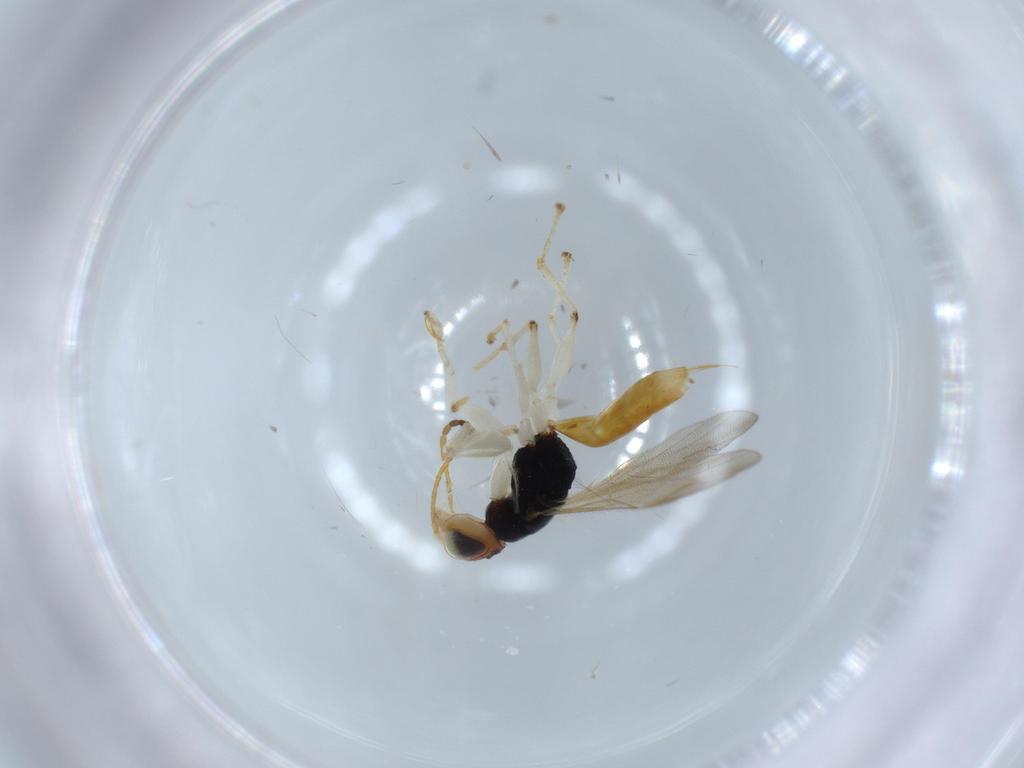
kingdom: Animalia
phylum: Arthropoda
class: Insecta
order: Hymenoptera
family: Dryinidae
